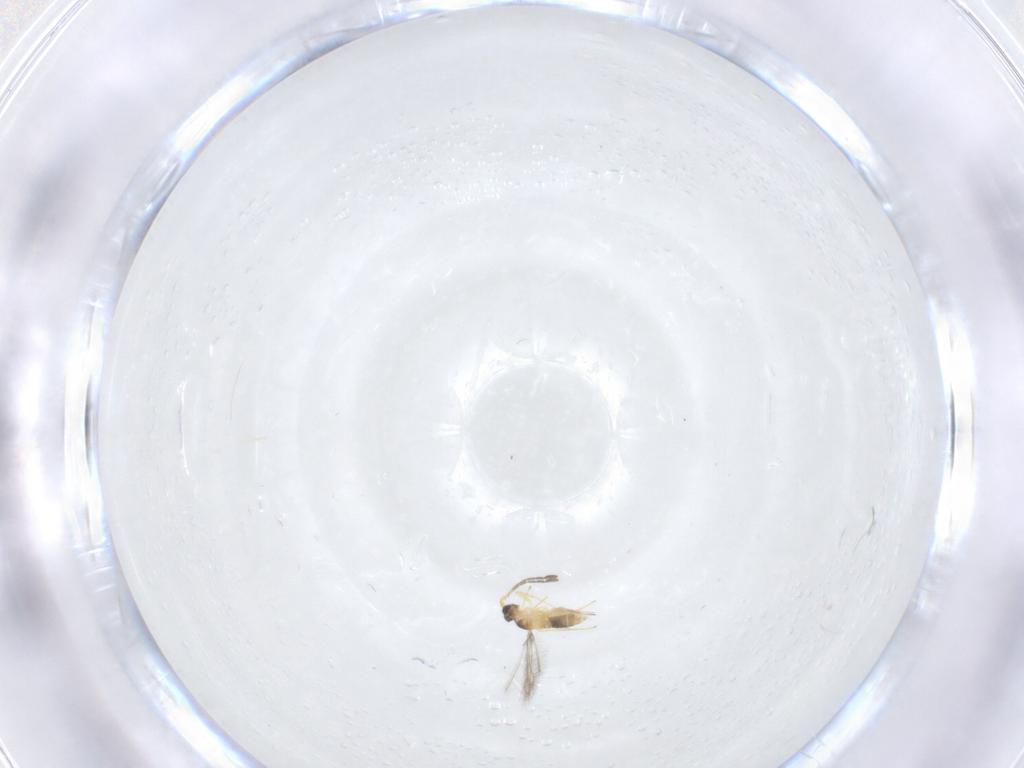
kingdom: Animalia
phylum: Arthropoda
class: Insecta
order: Hymenoptera
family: Mymaridae
